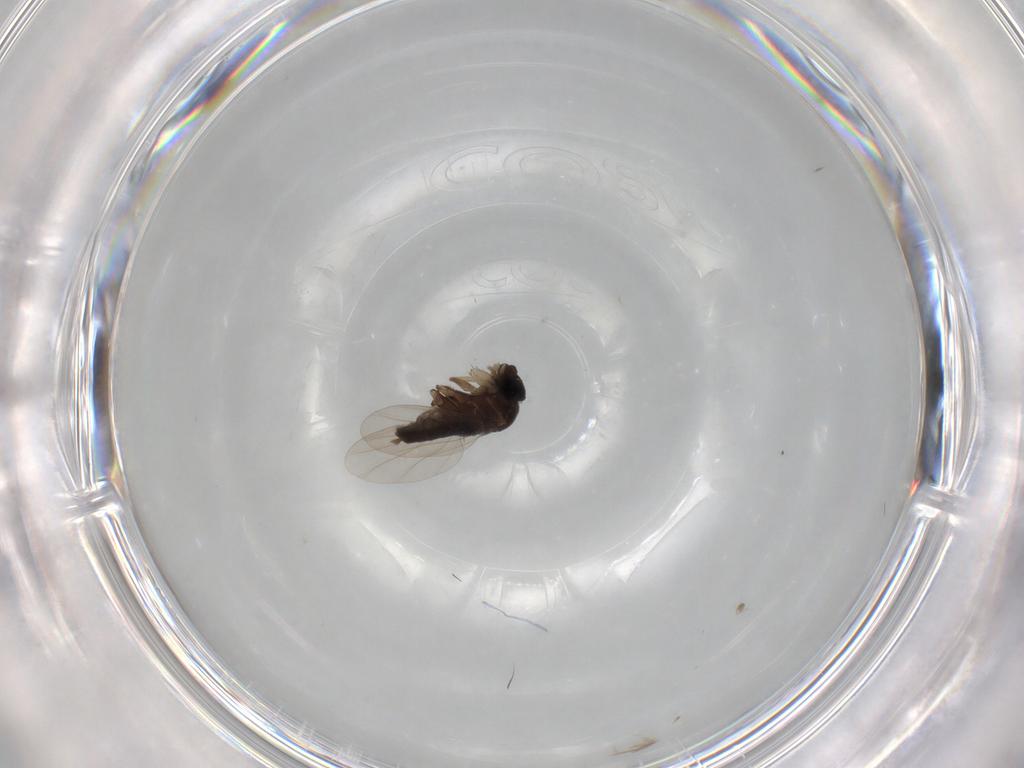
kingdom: Animalia
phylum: Arthropoda
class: Insecta
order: Diptera
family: Phoridae
